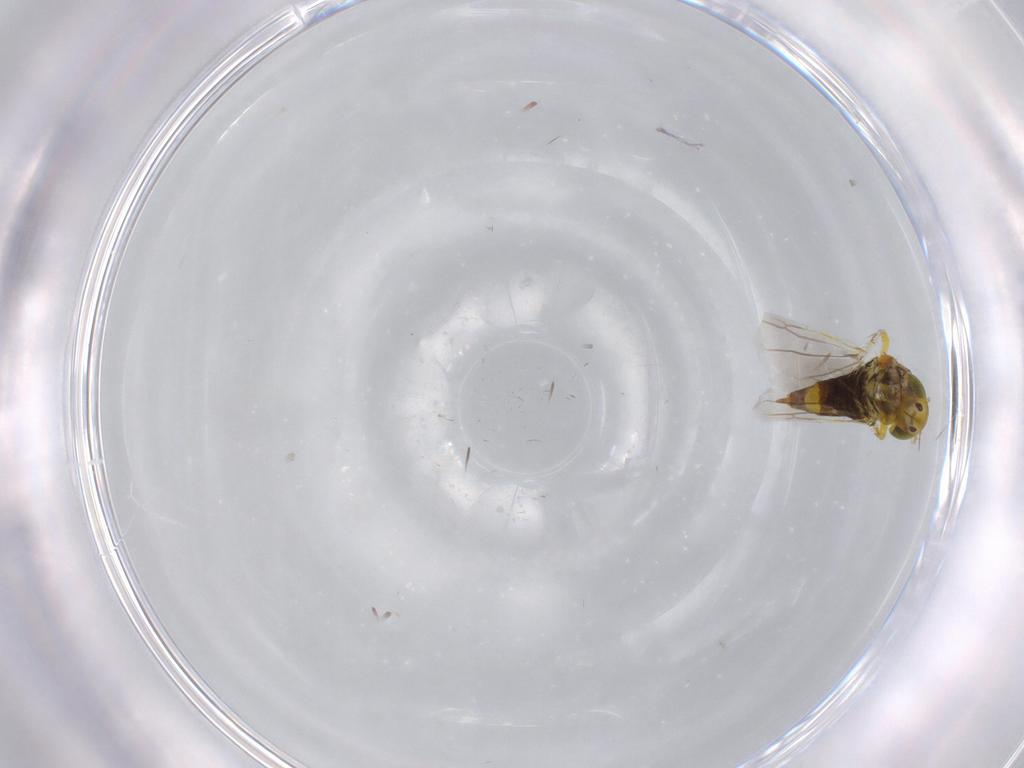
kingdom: Animalia
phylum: Arthropoda
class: Insecta
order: Hemiptera
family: Cicadellidae
